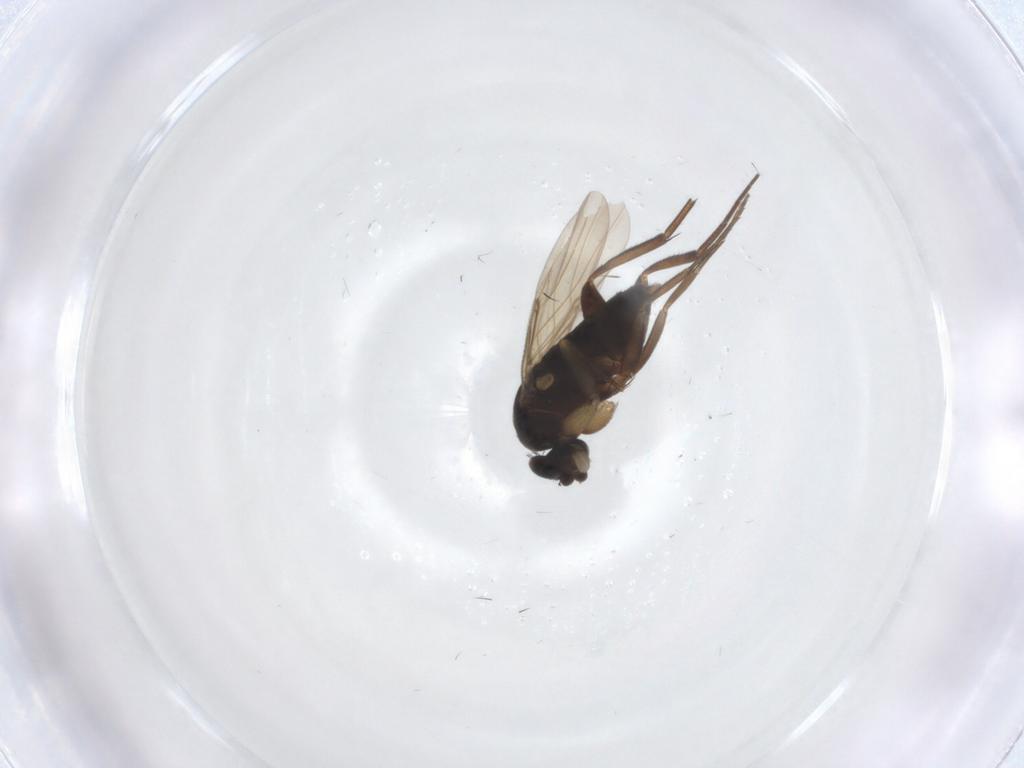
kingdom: Animalia
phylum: Arthropoda
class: Insecta
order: Diptera
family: Phoridae
